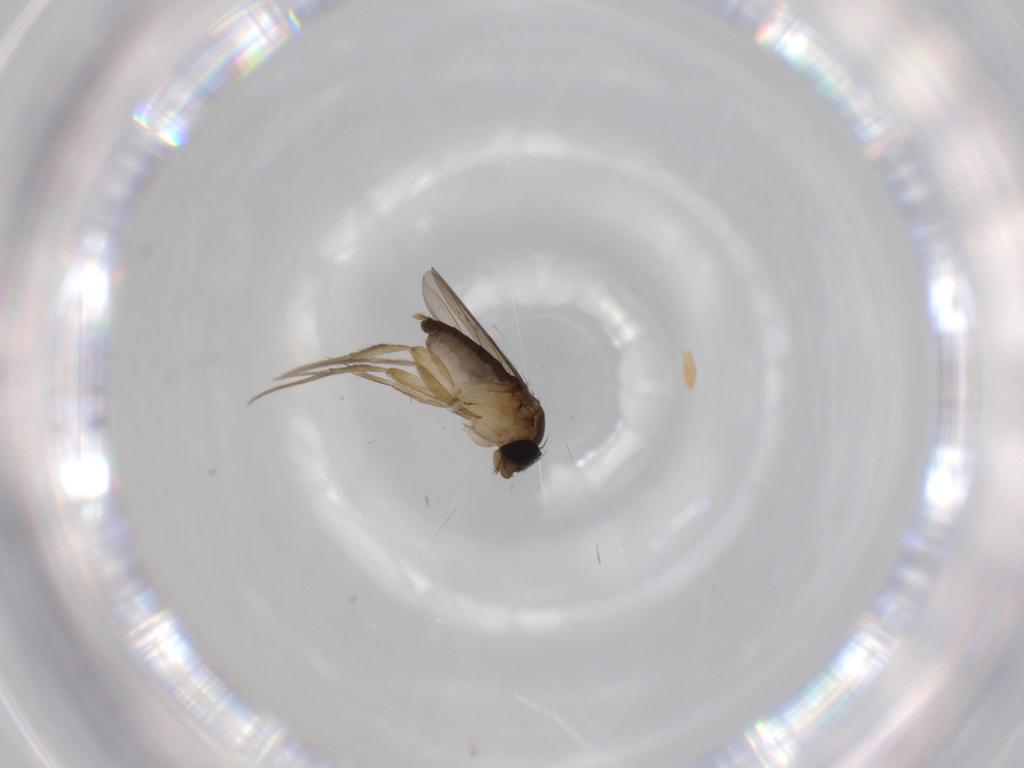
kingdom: Animalia
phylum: Arthropoda
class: Insecta
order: Diptera
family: Phoridae
